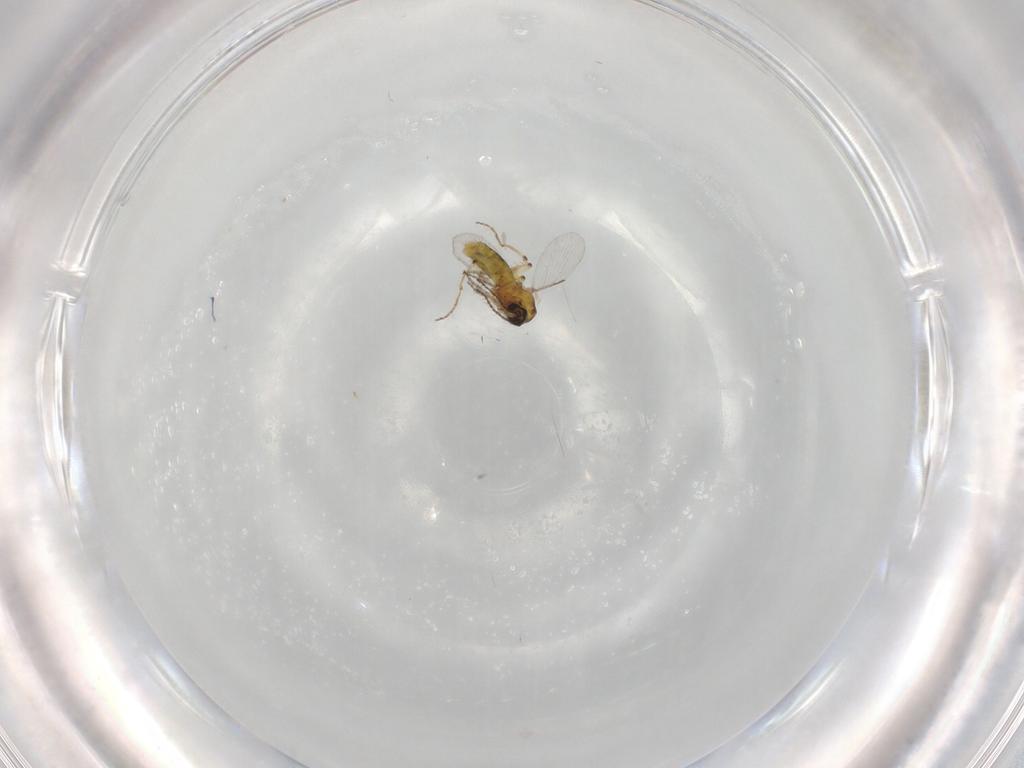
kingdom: Animalia
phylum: Arthropoda
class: Insecta
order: Diptera
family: Ceratopogonidae
